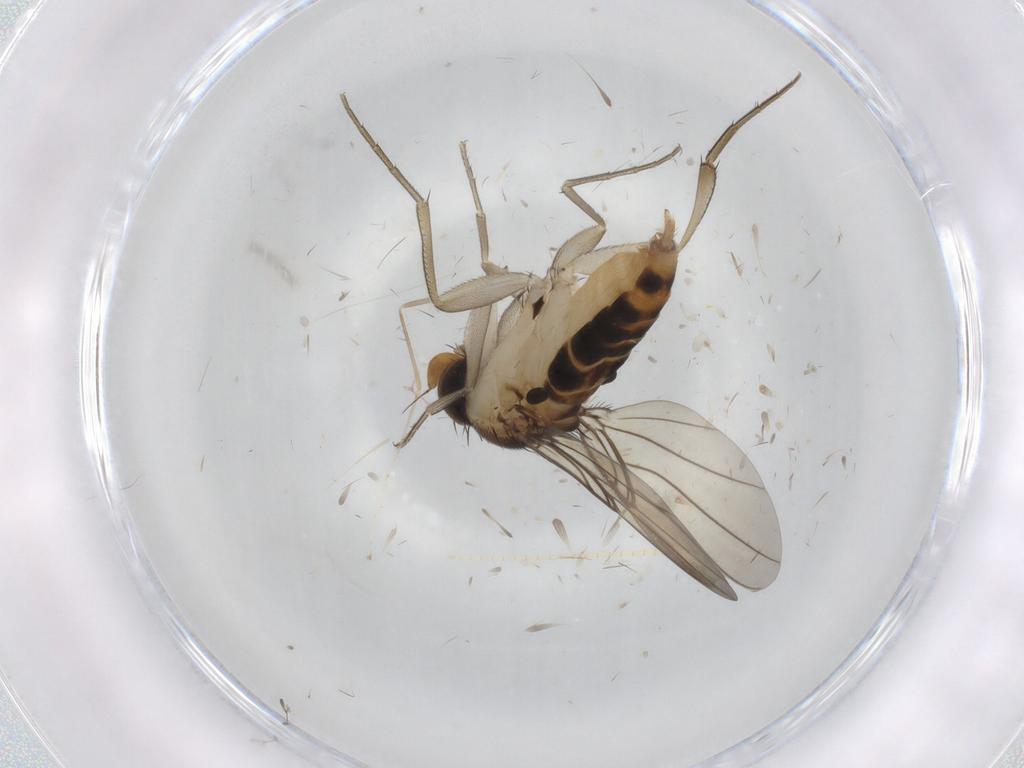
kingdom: Animalia
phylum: Arthropoda
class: Insecta
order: Diptera
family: Phoridae
